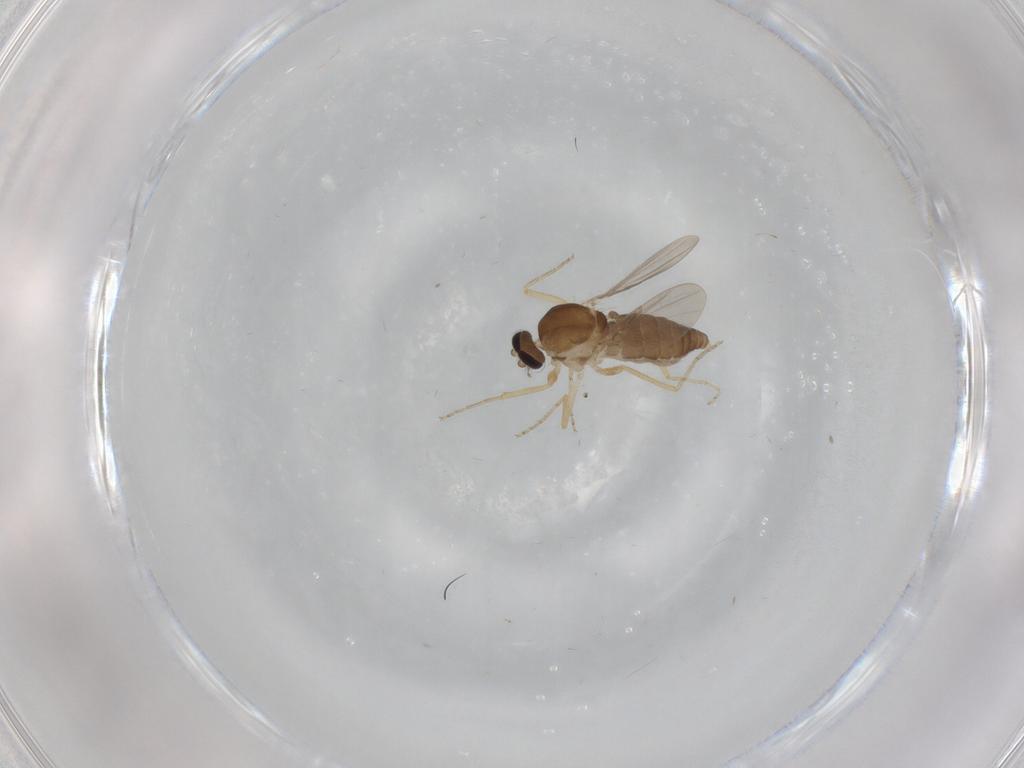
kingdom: Animalia
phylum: Arthropoda
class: Insecta
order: Diptera
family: Ceratopogonidae
